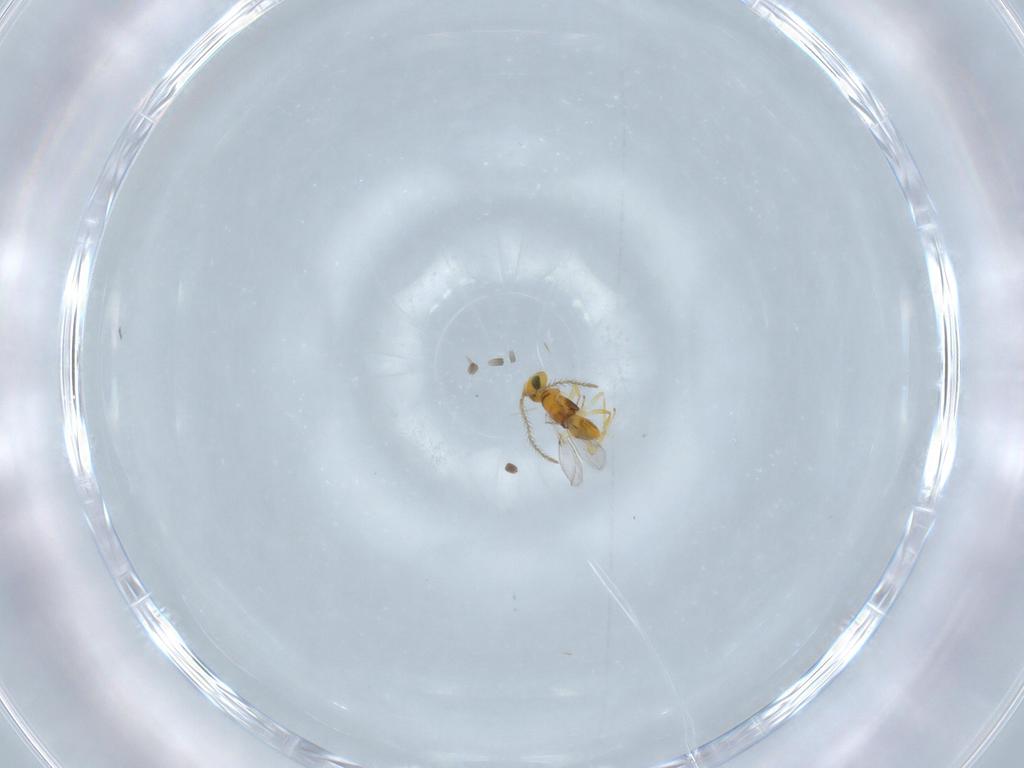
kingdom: Animalia
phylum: Arthropoda
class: Insecta
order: Hymenoptera
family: Encyrtidae
